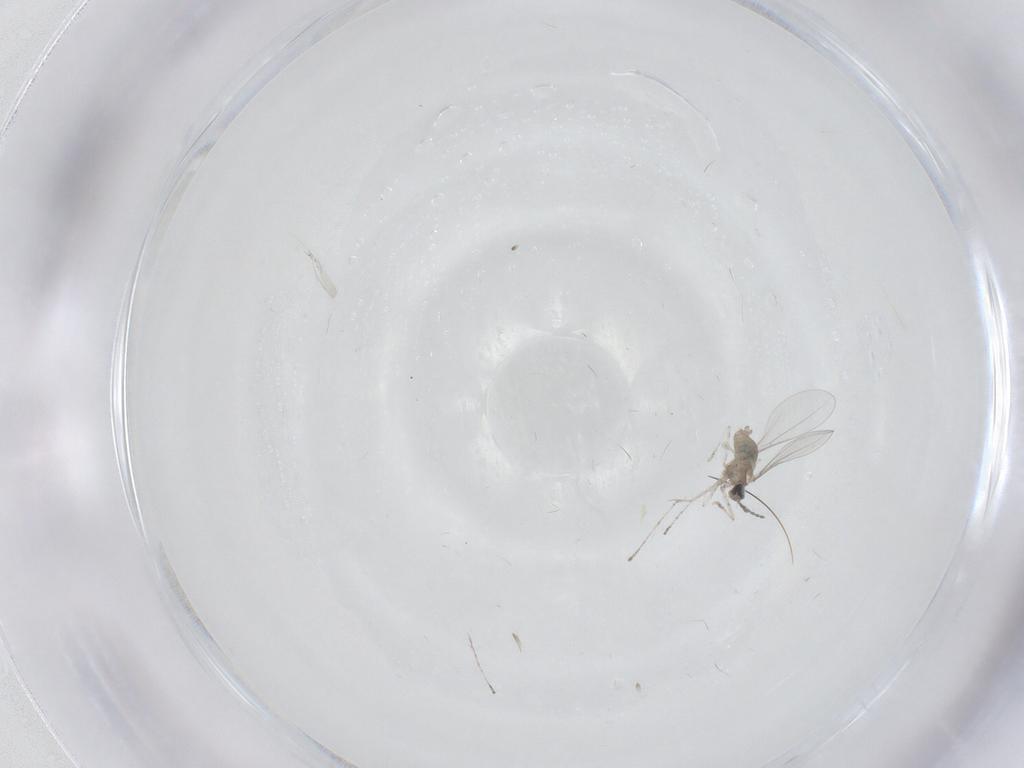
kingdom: Animalia
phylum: Arthropoda
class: Insecta
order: Diptera
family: Cecidomyiidae
